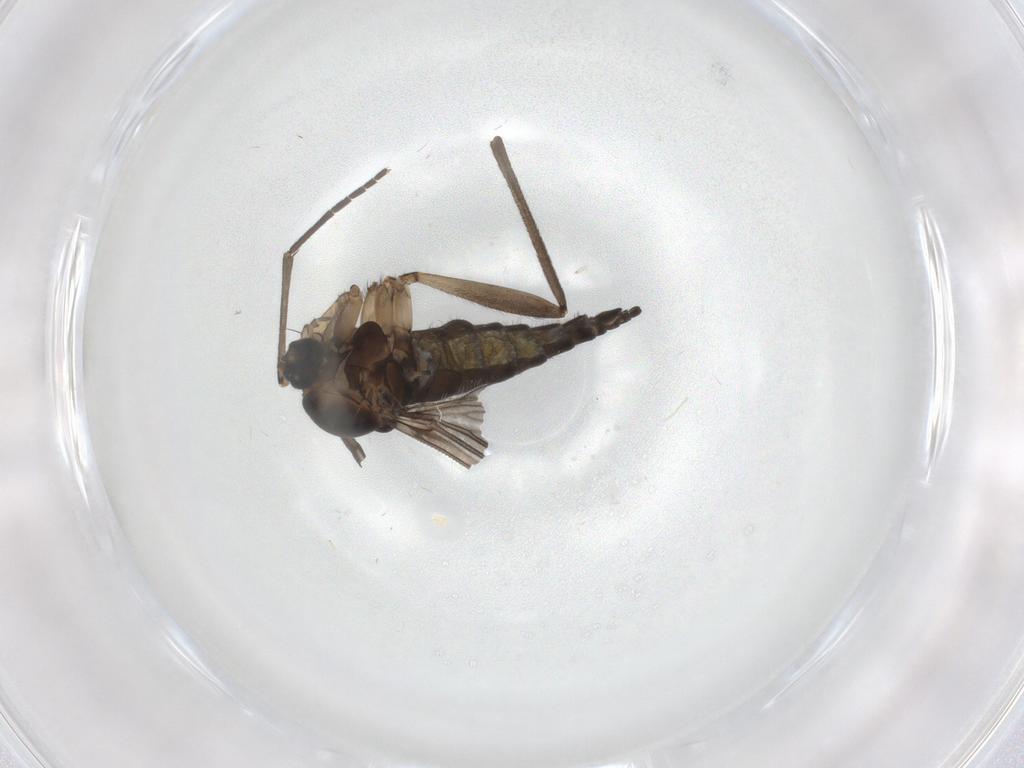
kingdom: Animalia
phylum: Arthropoda
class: Insecta
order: Diptera
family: Sciaridae
